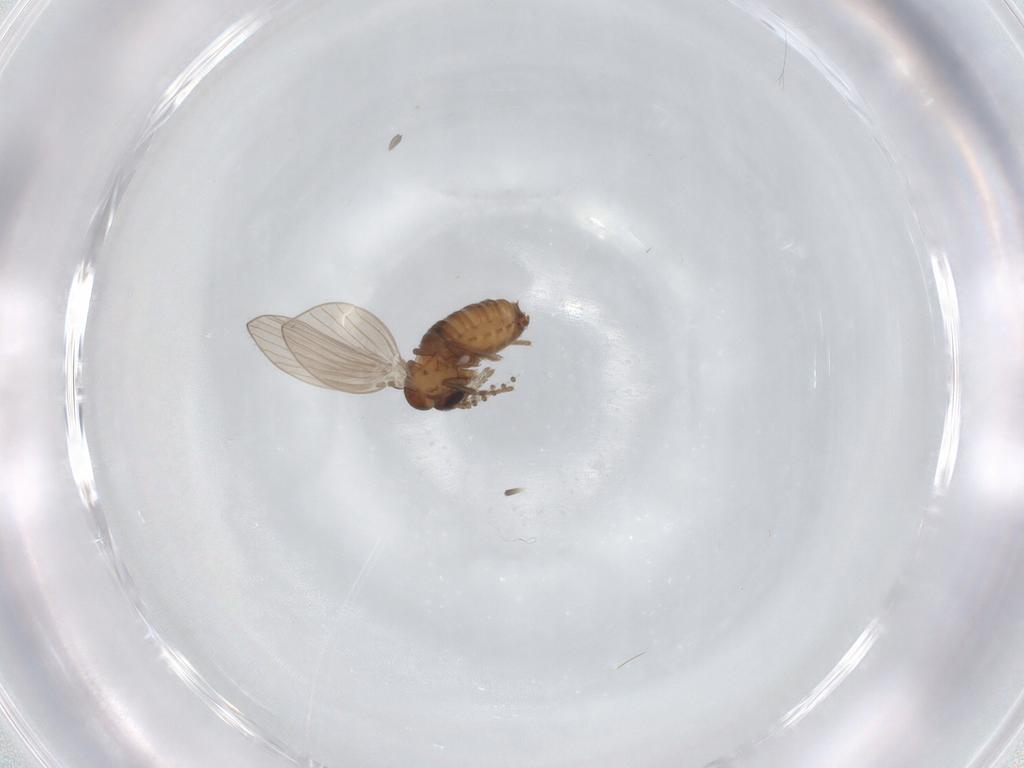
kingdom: Animalia
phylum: Arthropoda
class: Insecta
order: Diptera
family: Psychodidae
